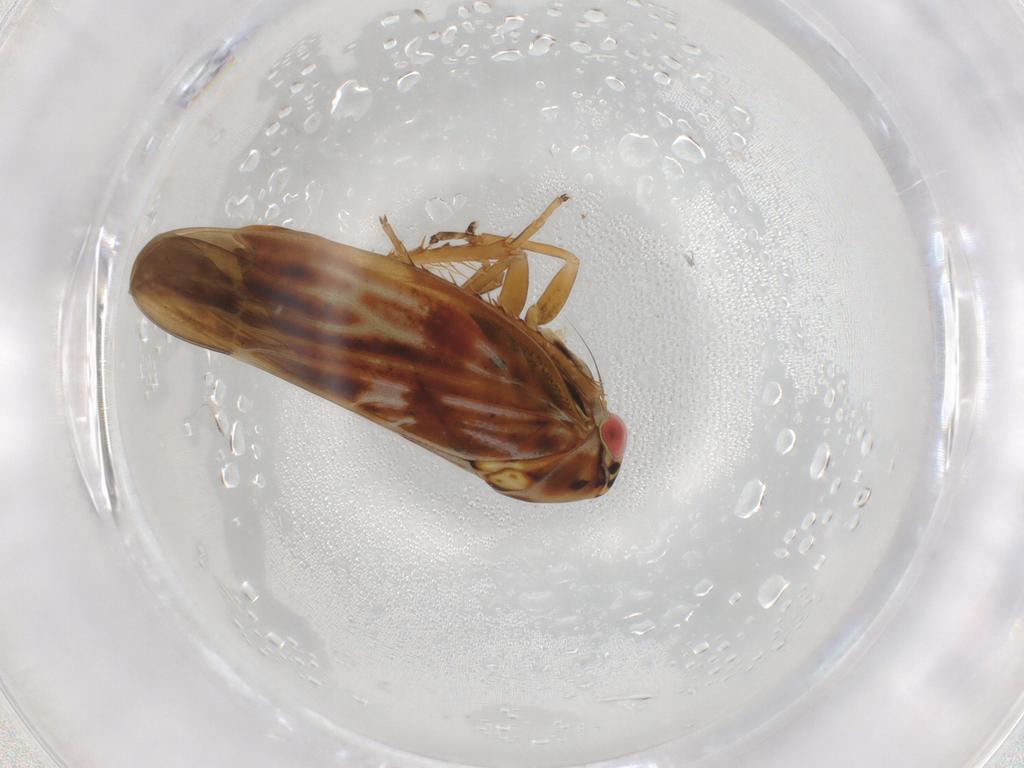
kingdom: Animalia
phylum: Arthropoda
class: Insecta
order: Hemiptera
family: Cicadellidae
